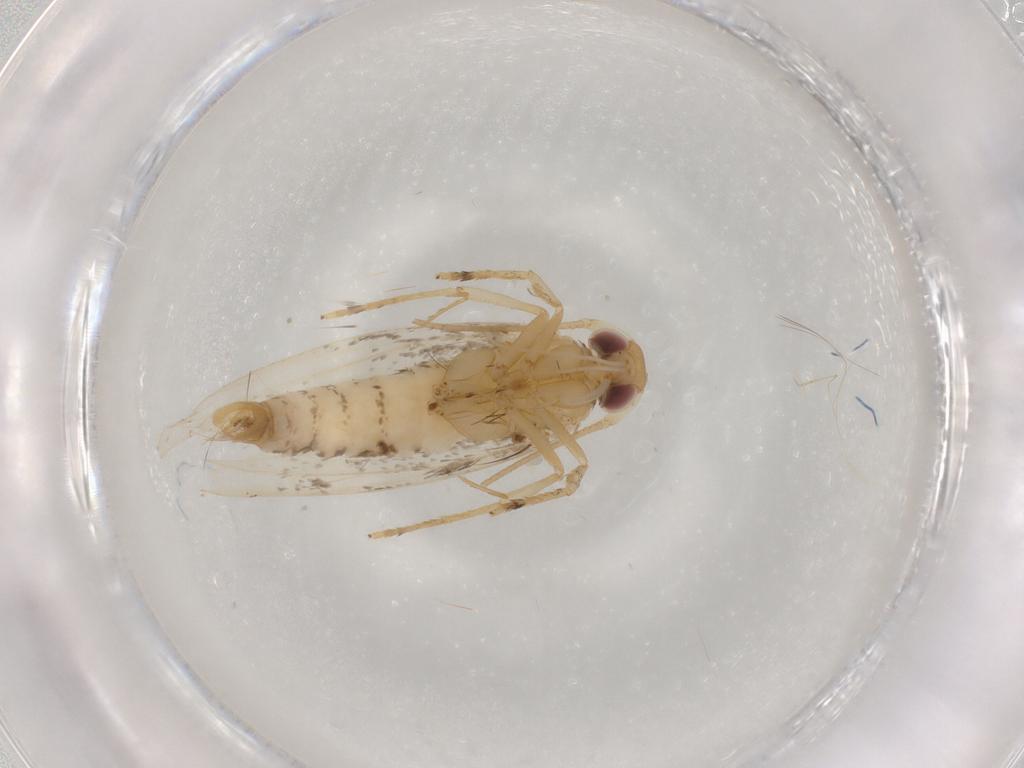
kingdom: Animalia
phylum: Arthropoda
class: Insecta
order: Lepidoptera
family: Cosmopterigidae
